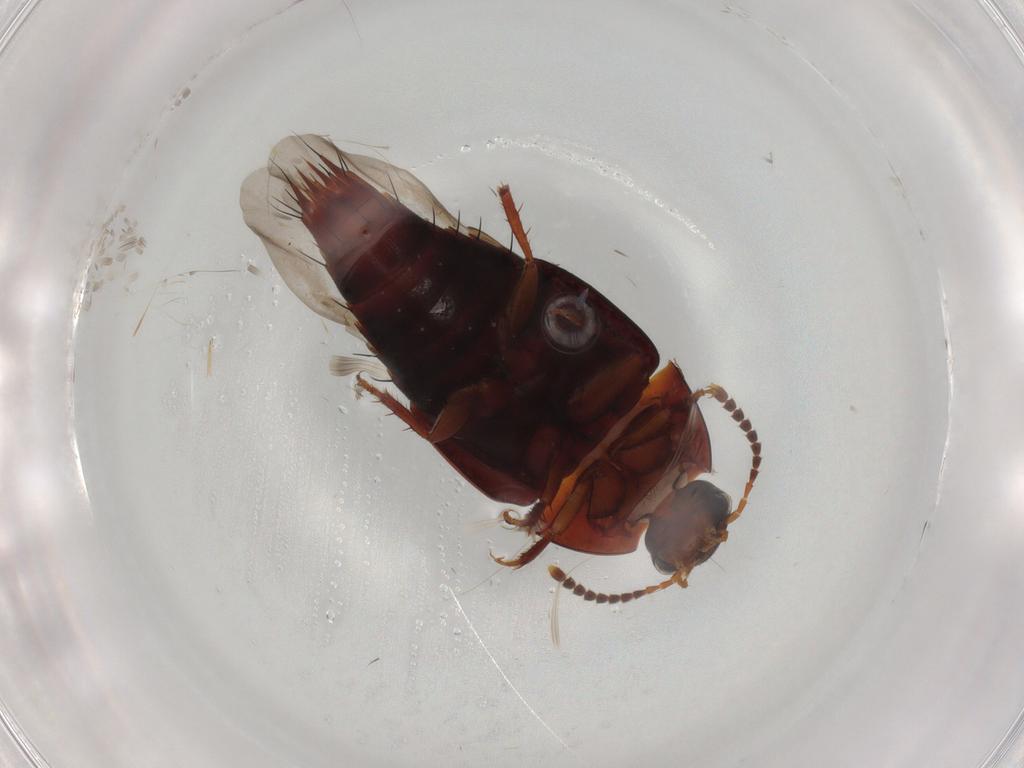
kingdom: Animalia
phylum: Arthropoda
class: Insecta
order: Coleoptera
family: Staphylinidae
